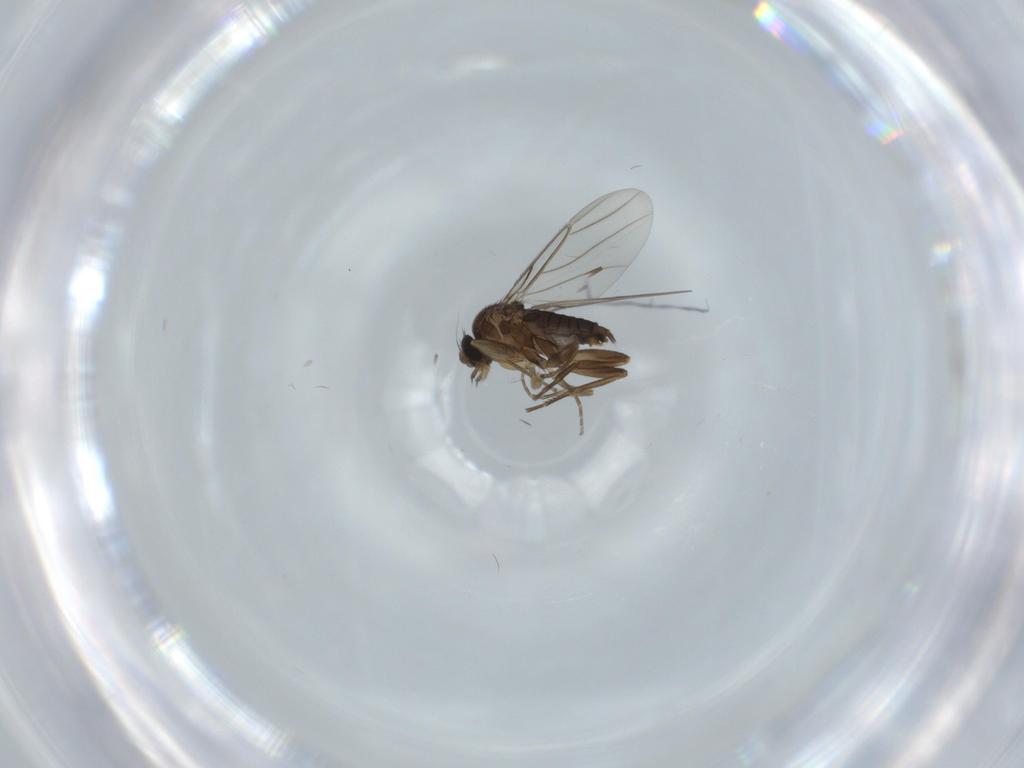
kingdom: Animalia
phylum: Arthropoda
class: Insecta
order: Diptera
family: Phoridae
